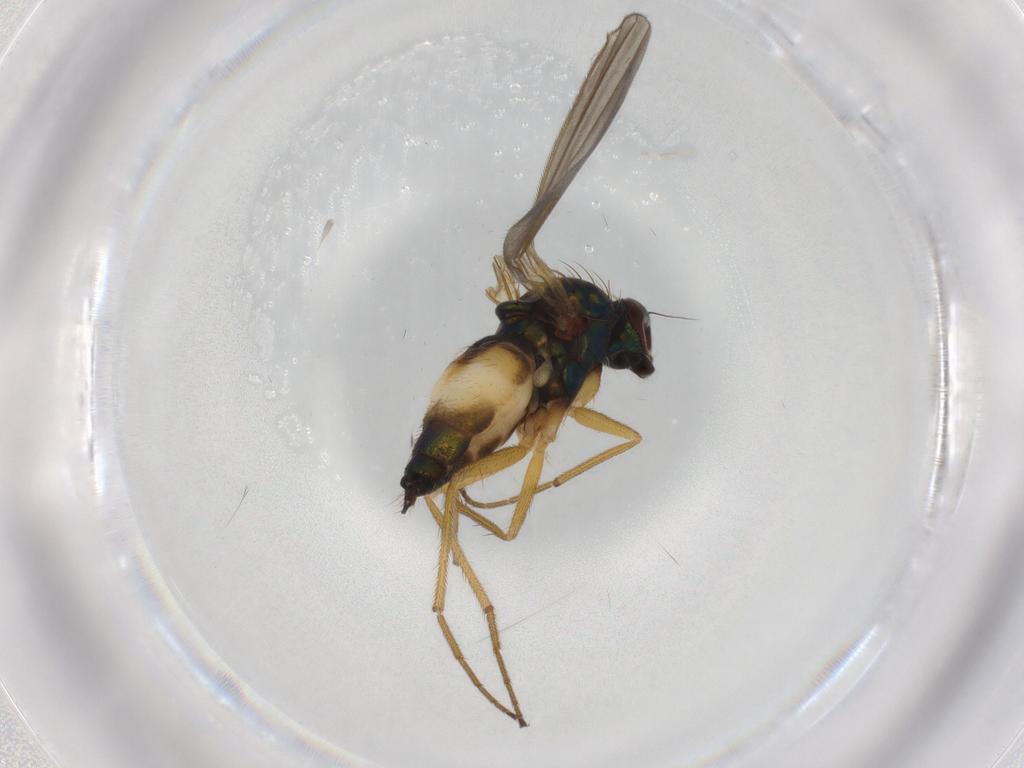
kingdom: Animalia
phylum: Arthropoda
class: Insecta
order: Diptera
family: Dolichopodidae
